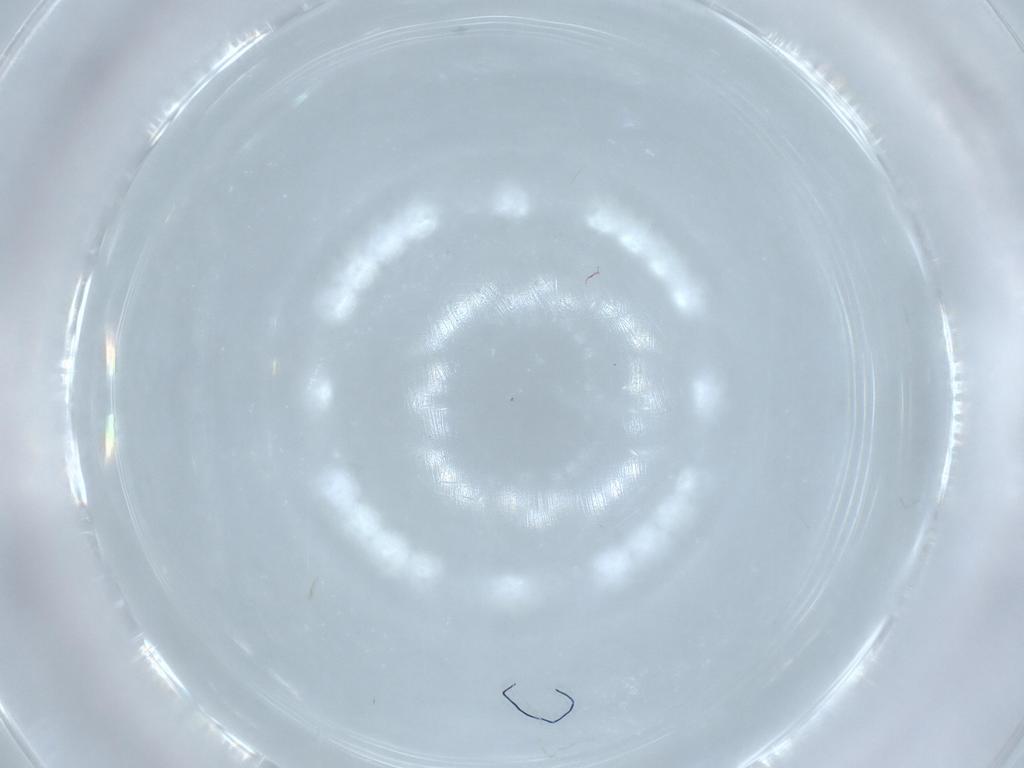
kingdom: Animalia
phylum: Arthropoda
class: Insecta
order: Diptera
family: Cecidomyiidae
